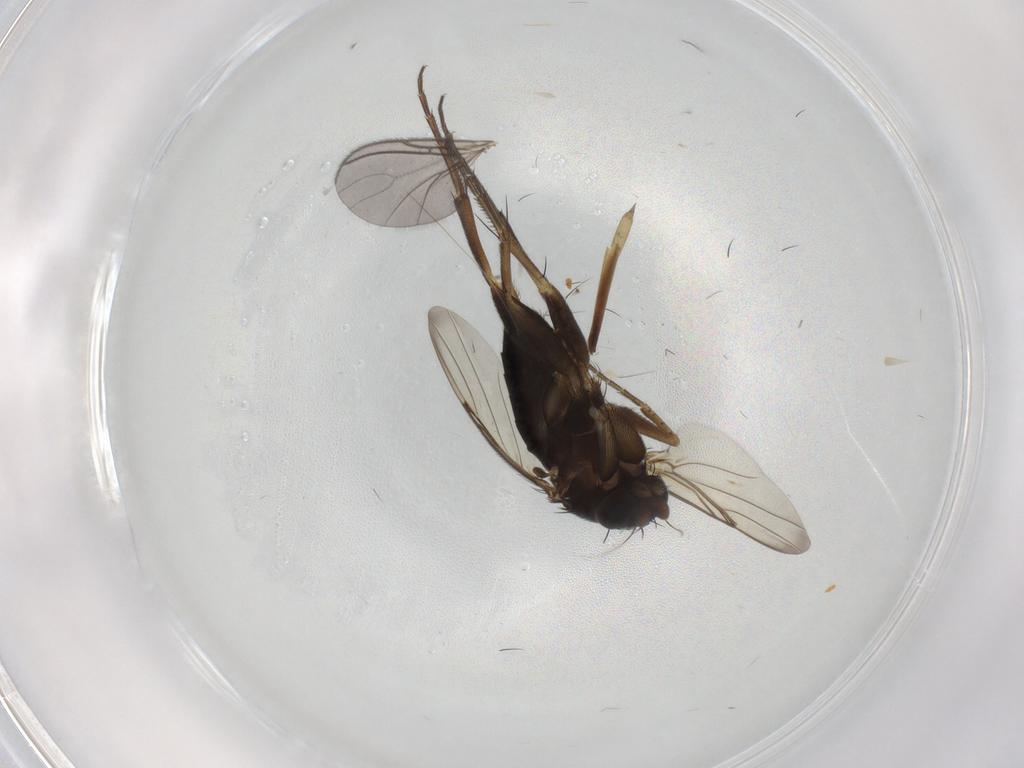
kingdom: Animalia
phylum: Arthropoda
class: Insecta
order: Diptera
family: Phoridae
